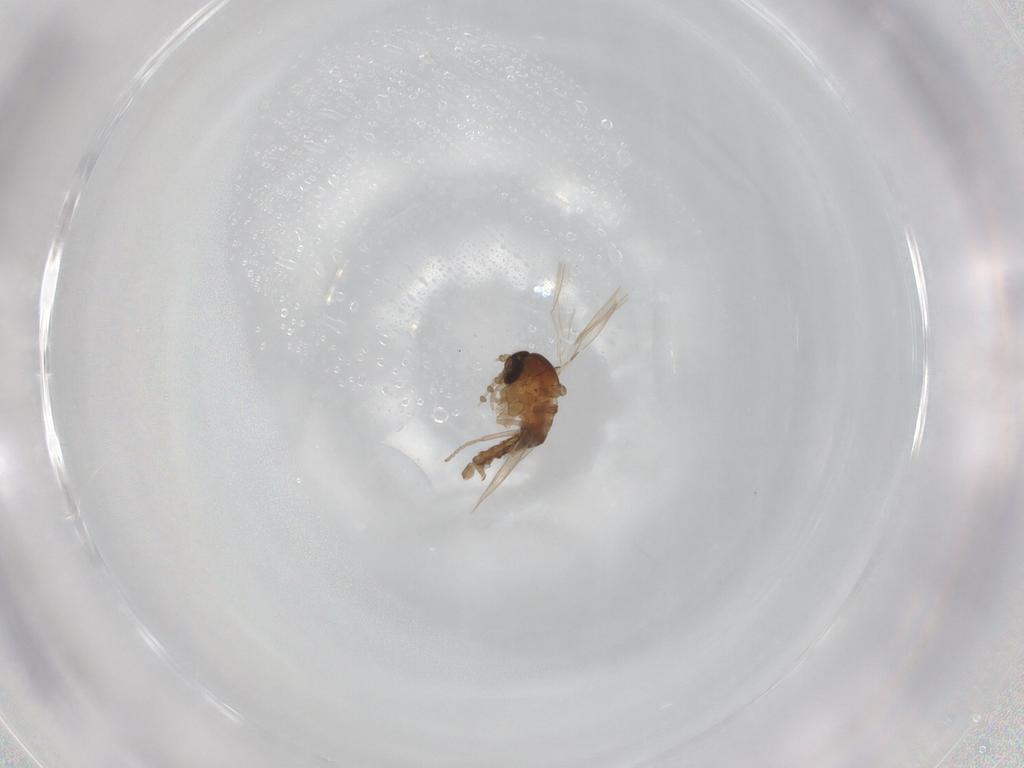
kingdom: Animalia
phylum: Arthropoda
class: Insecta
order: Diptera
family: Psychodidae
